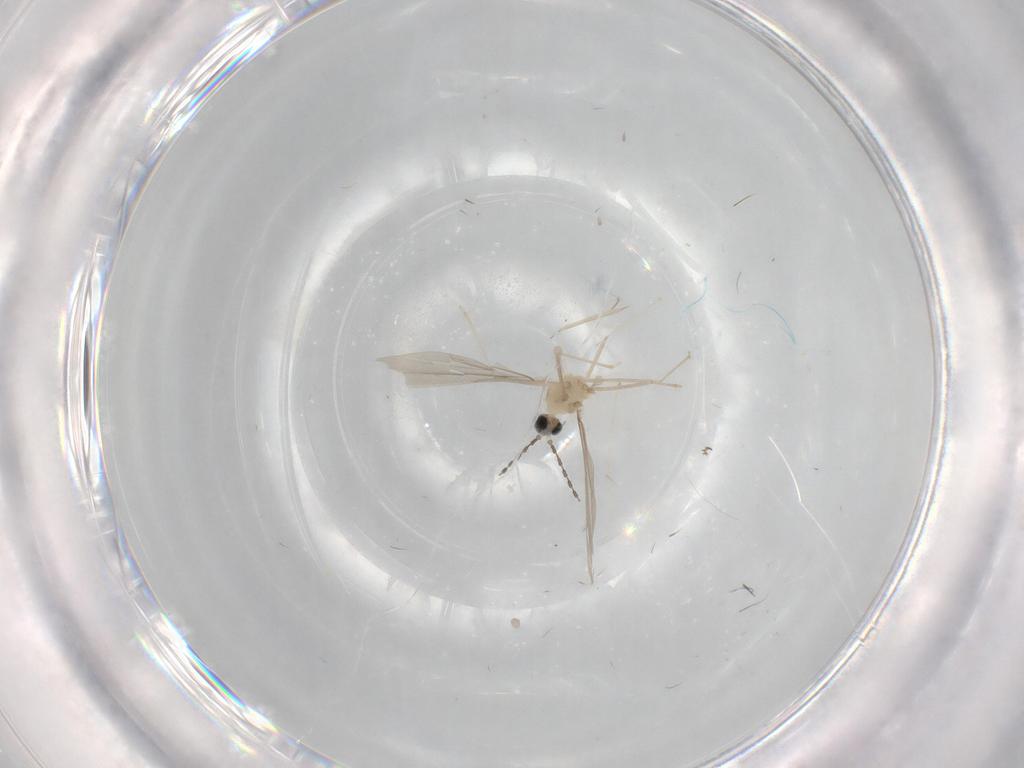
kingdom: Animalia
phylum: Arthropoda
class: Insecta
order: Diptera
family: Cecidomyiidae
